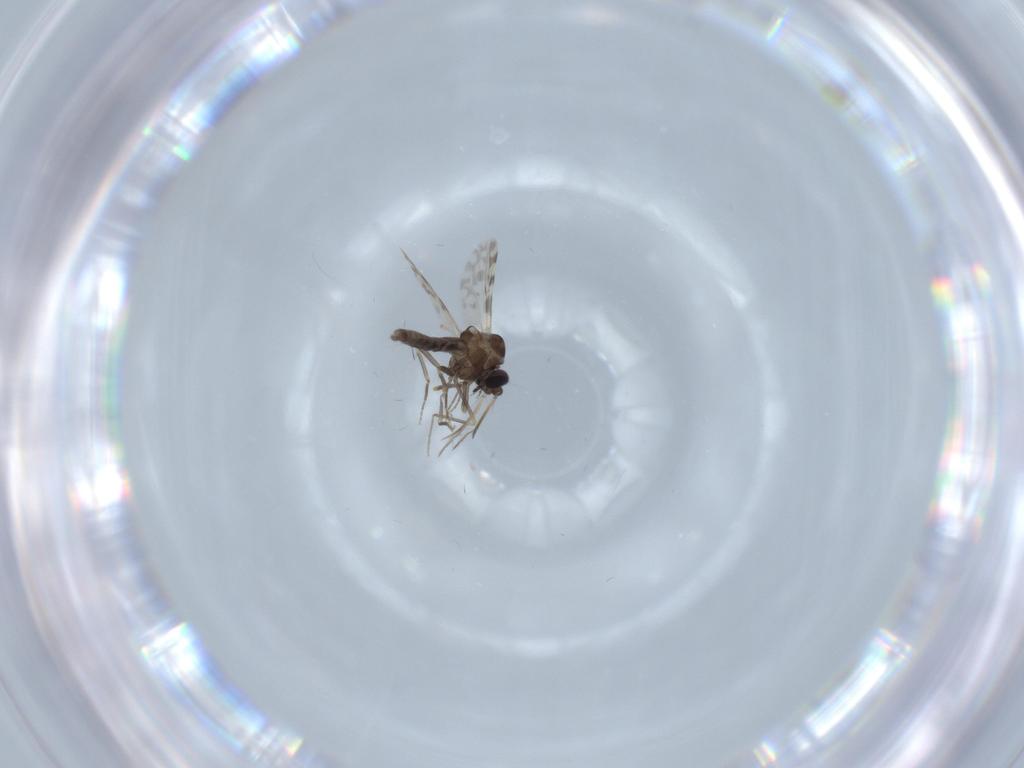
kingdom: Animalia
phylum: Arthropoda
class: Insecta
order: Diptera
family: Ceratopogonidae
